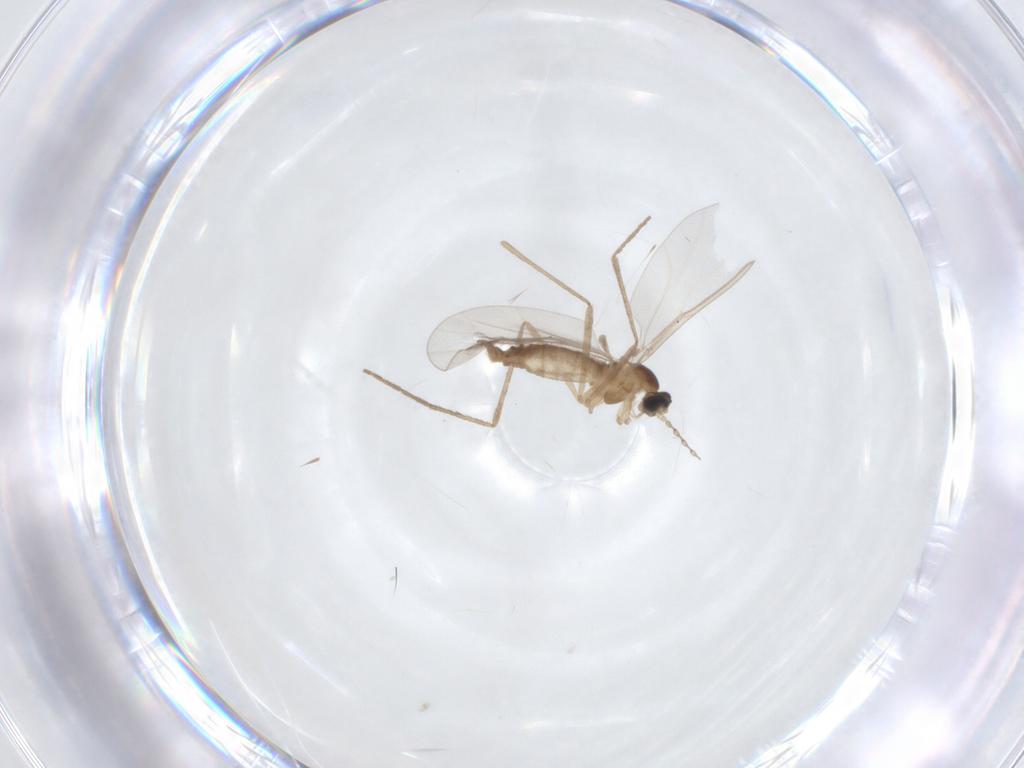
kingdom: Animalia
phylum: Arthropoda
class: Insecta
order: Diptera
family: Cecidomyiidae
